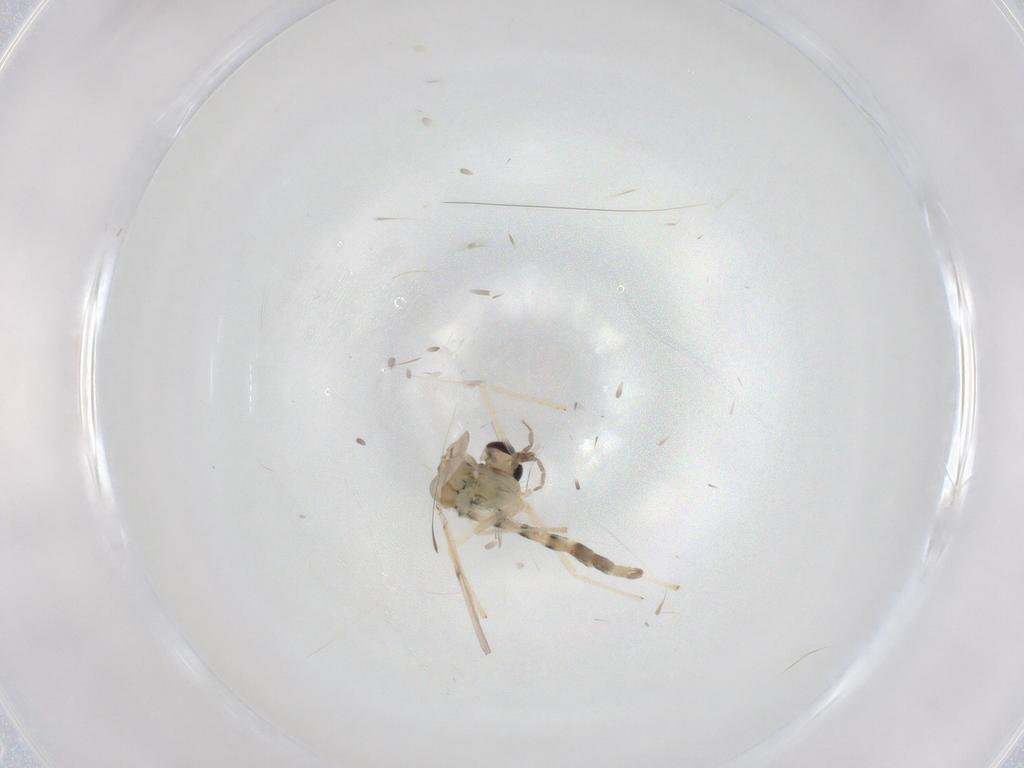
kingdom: Animalia
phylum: Arthropoda
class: Insecta
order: Diptera
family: Chironomidae
